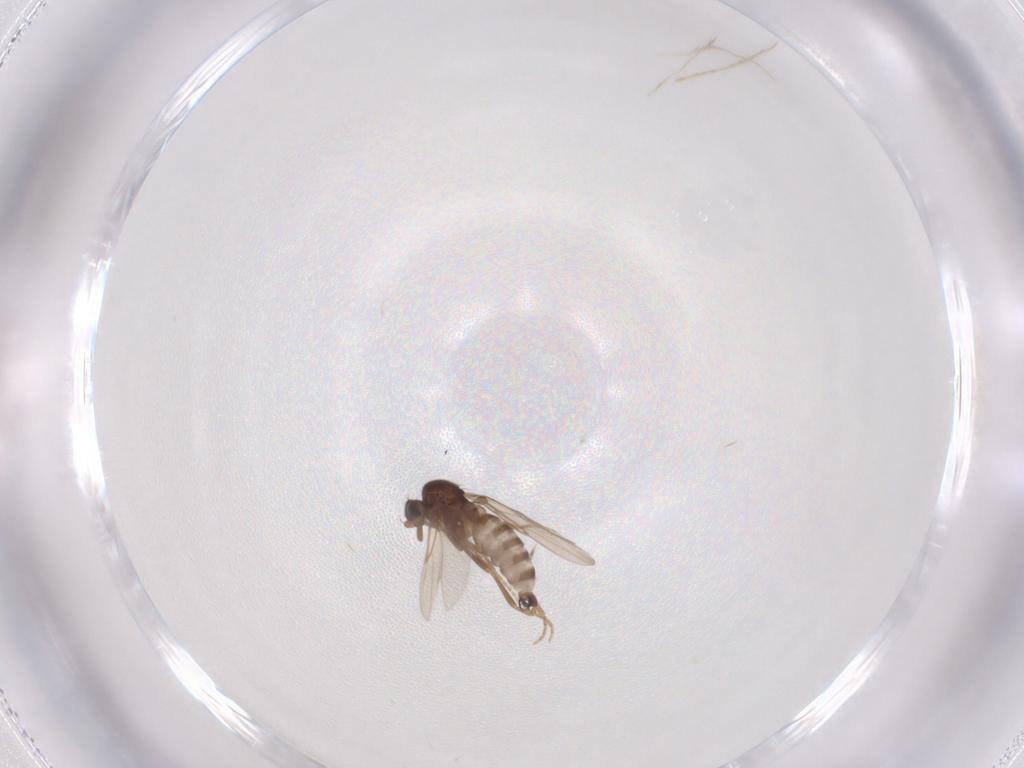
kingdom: Animalia
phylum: Arthropoda
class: Insecta
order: Diptera
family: Phoridae
